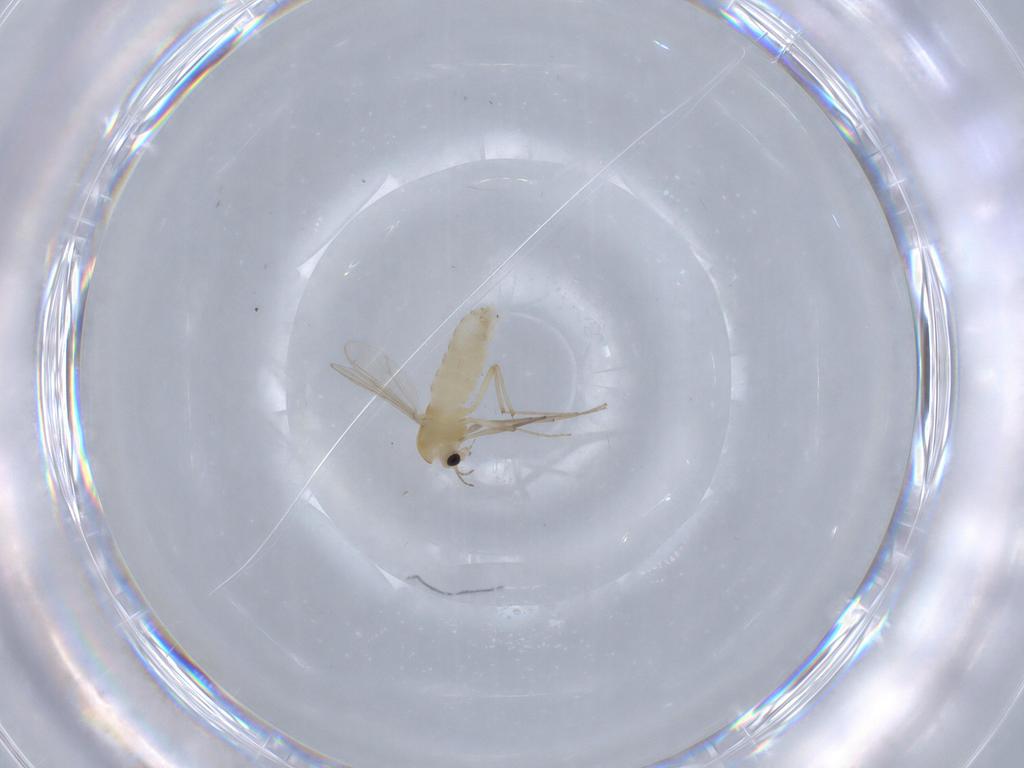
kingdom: Animalia
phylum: Arthropoda
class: Insecta
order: Diptera
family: Chironomidae
